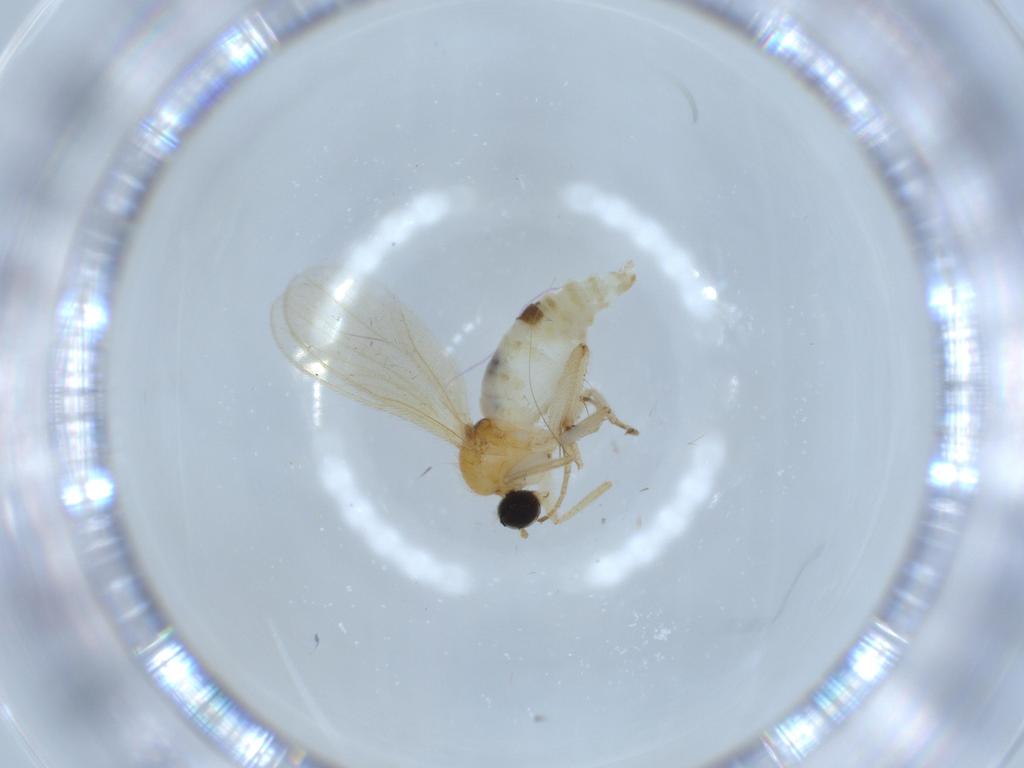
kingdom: Animalia
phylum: Arthropoda
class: Insecta
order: Diptera
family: Hybotidae
